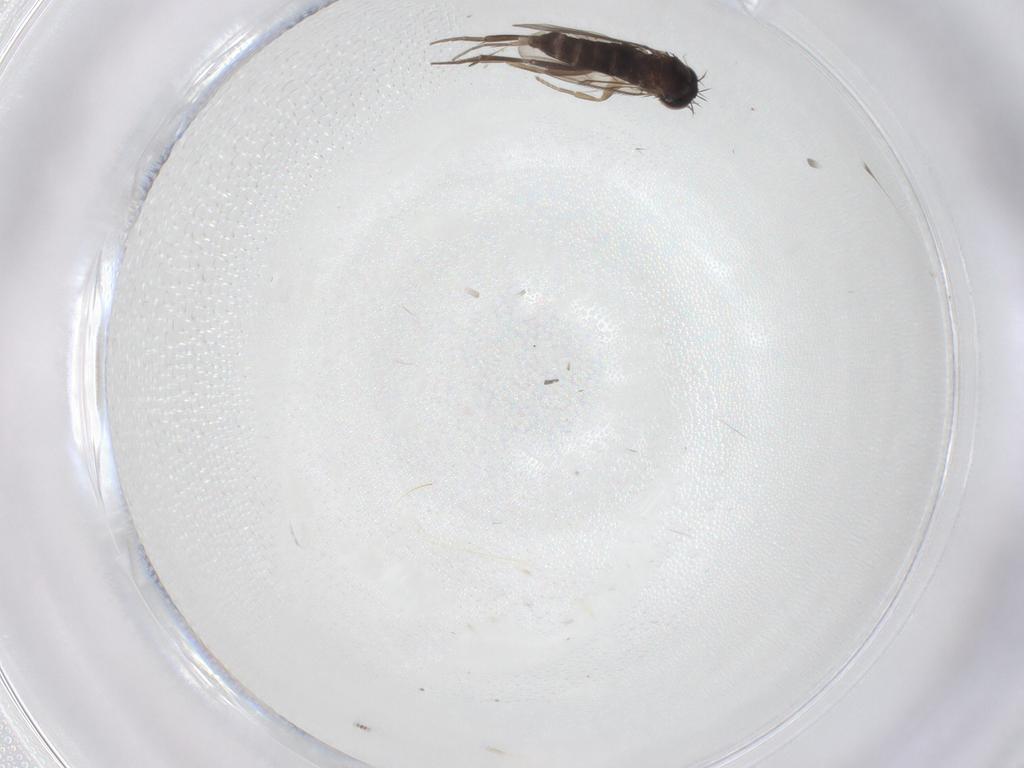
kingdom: Animalia
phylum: Arthropoda
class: Insecta
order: Diptera
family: Phoridae
